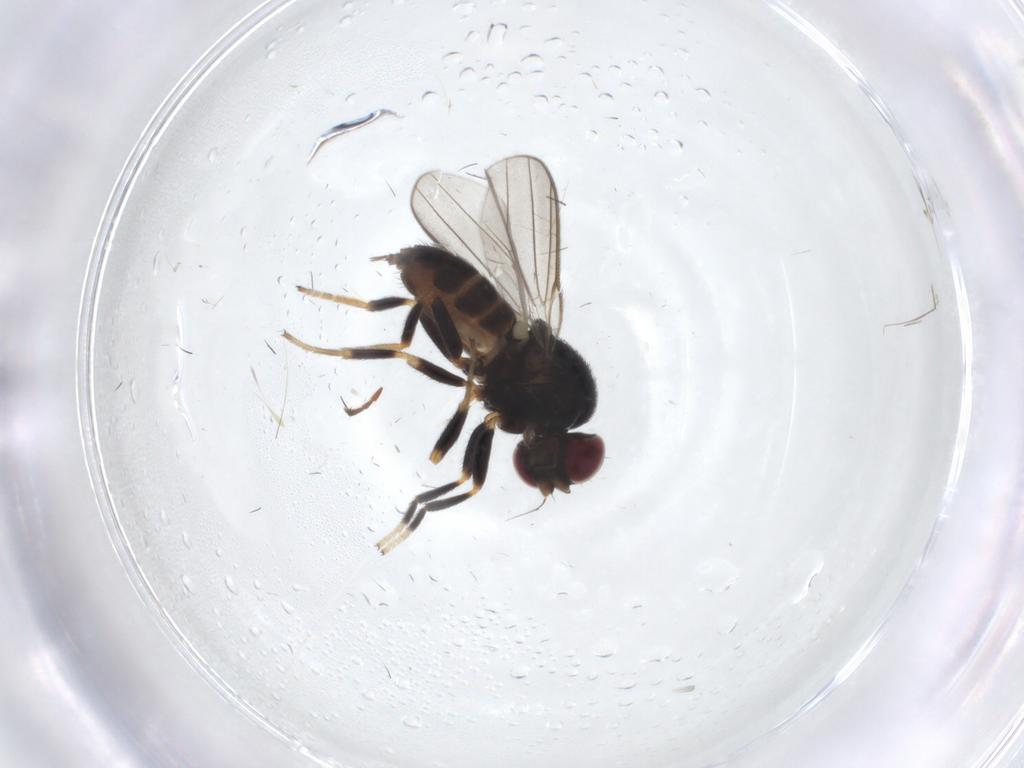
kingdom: Animalia
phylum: Arthropoda
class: Insecta
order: Diptera
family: Chloropidae
